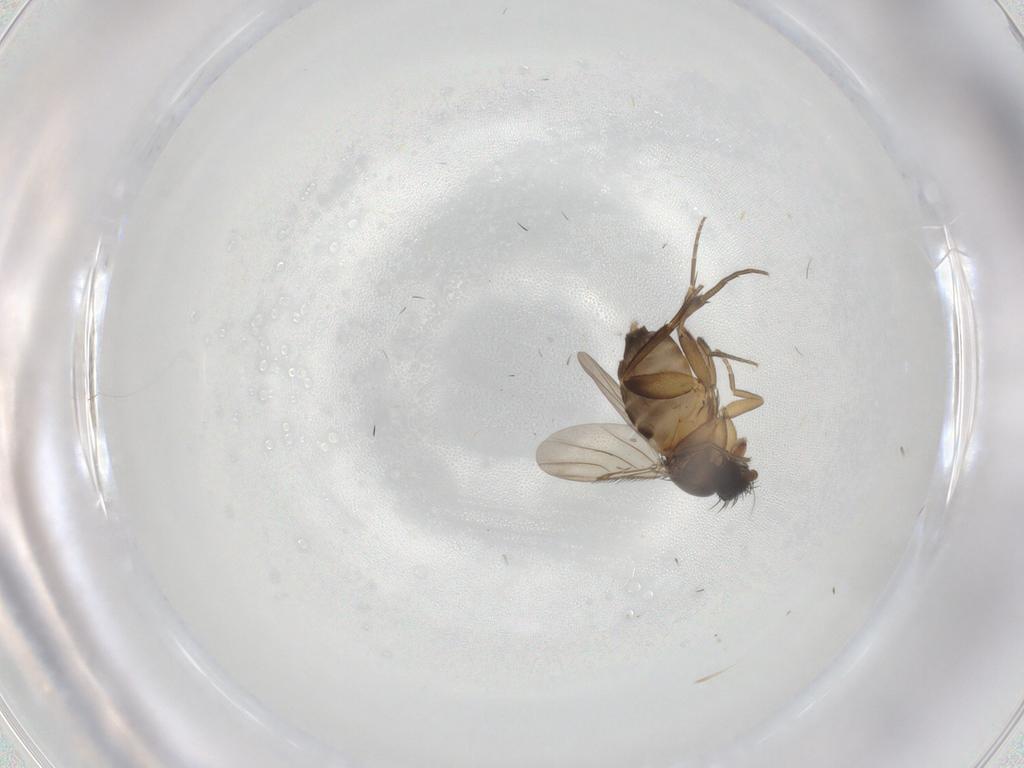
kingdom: Animalia
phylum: Arthropoda
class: Insecta
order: Diptera
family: Phoridae
